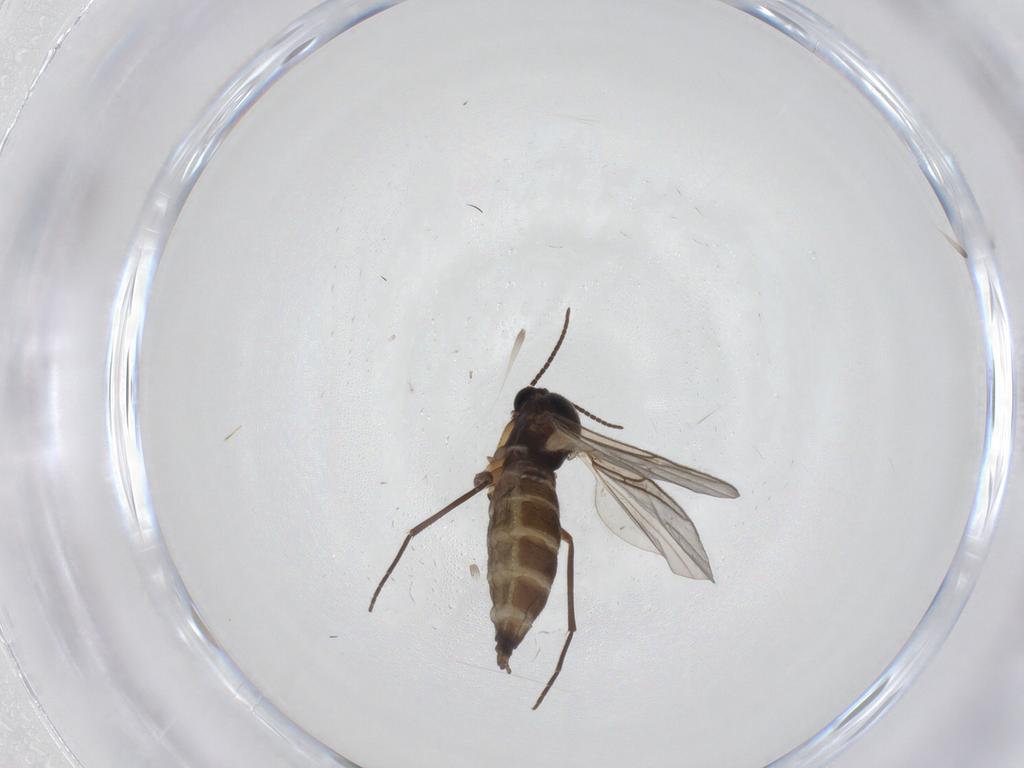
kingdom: Animalia
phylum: Arthropoda
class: Insecta
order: Diptera
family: Sciaridae
